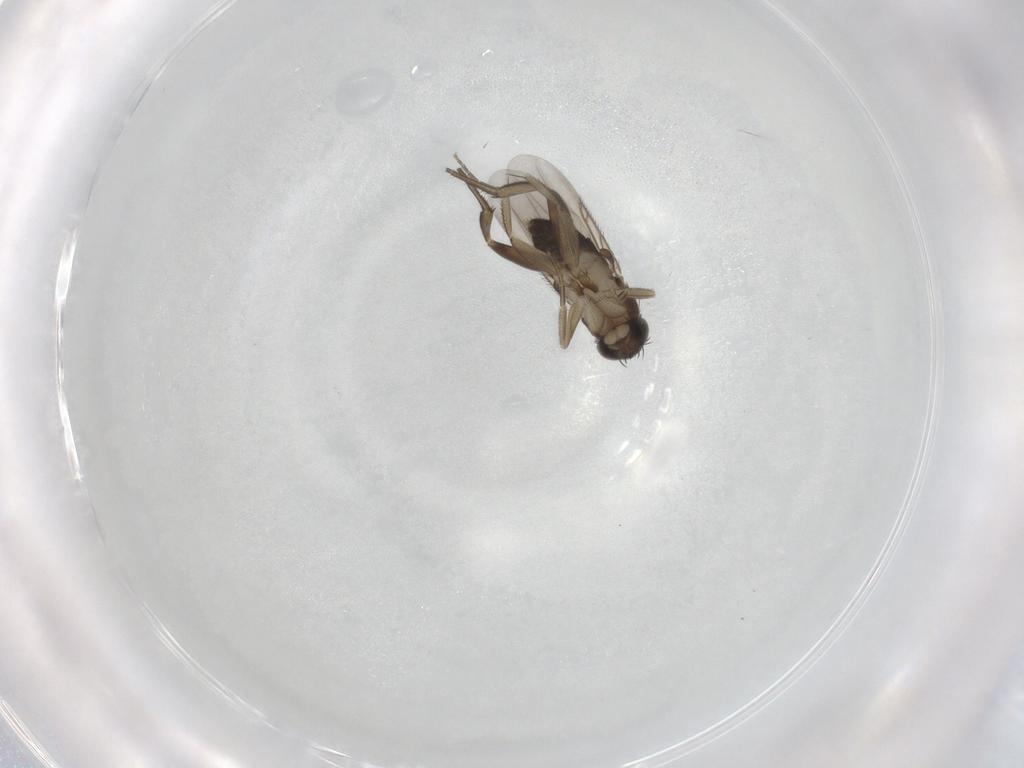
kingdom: Animalia
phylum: Arthropoda
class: Insecta
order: Diptera
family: Phoridae
